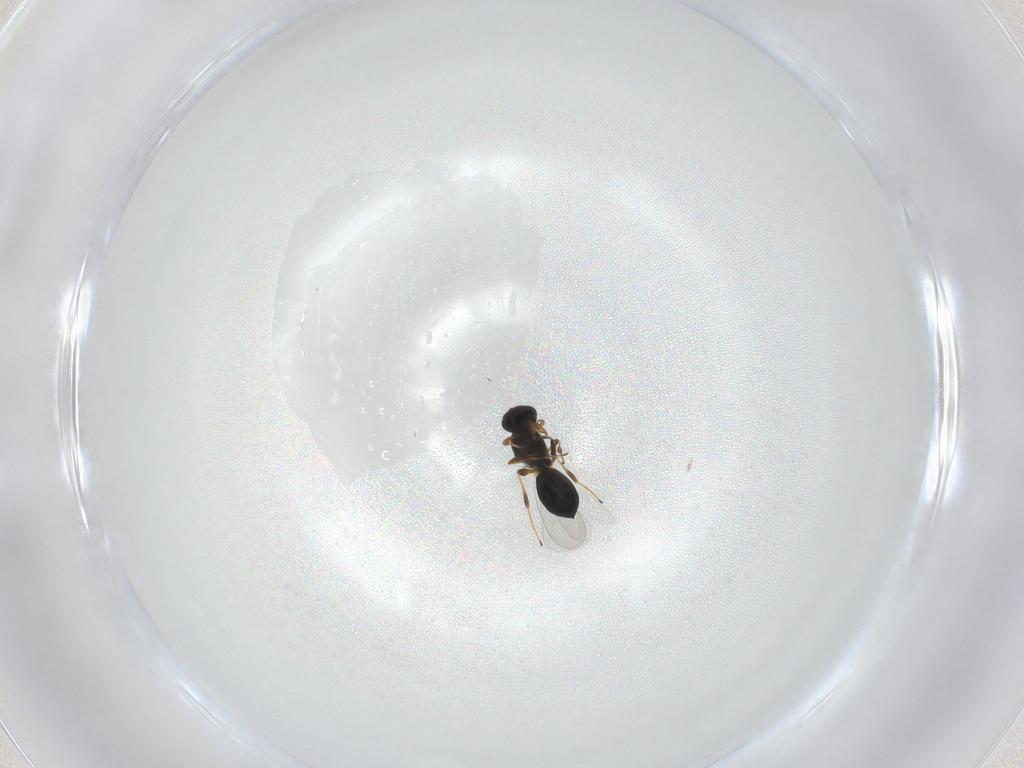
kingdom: Animalia
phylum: Arthropoda
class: Insecta
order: Hymenoptera
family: Platygastridae
